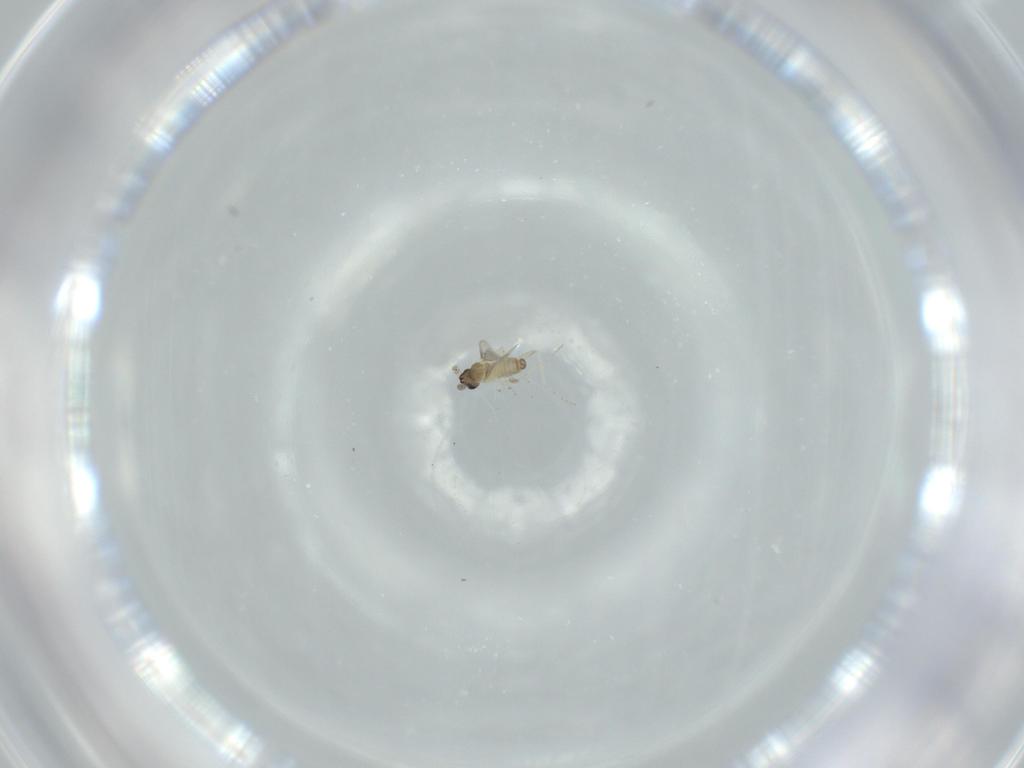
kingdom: Animalia
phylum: Arthropoda
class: Insecta
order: Diptera
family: Cecidomyiidae
